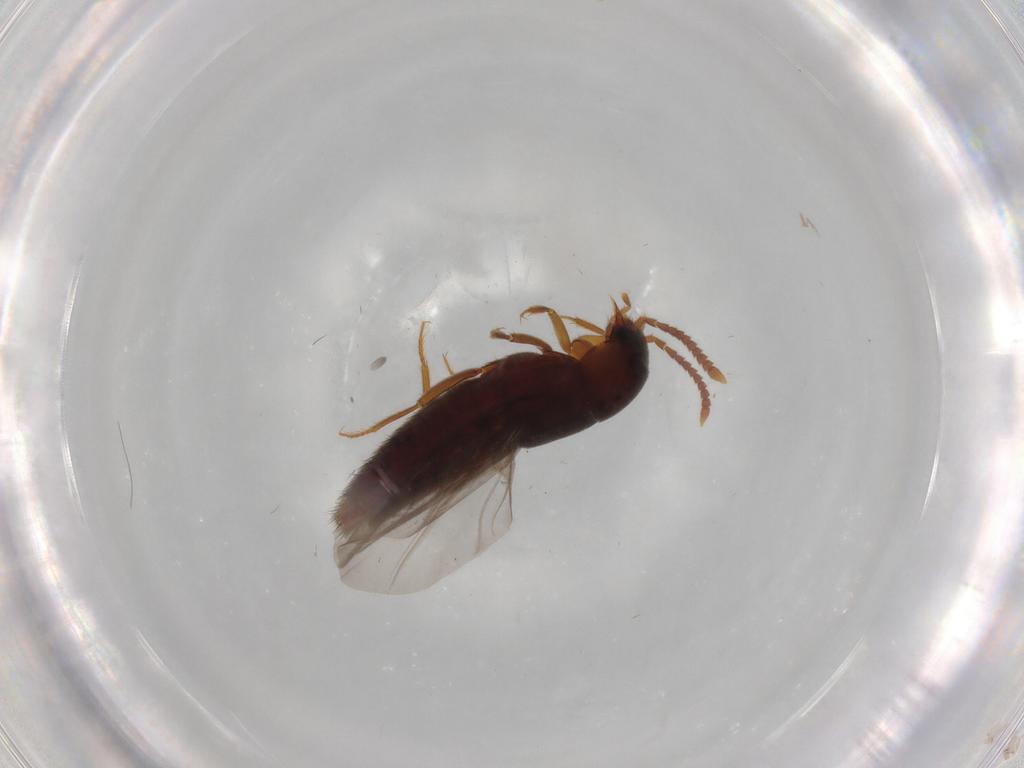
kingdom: Animalia
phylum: Arthropoda
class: Insecta
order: Coleoptera
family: Staphylinidae
